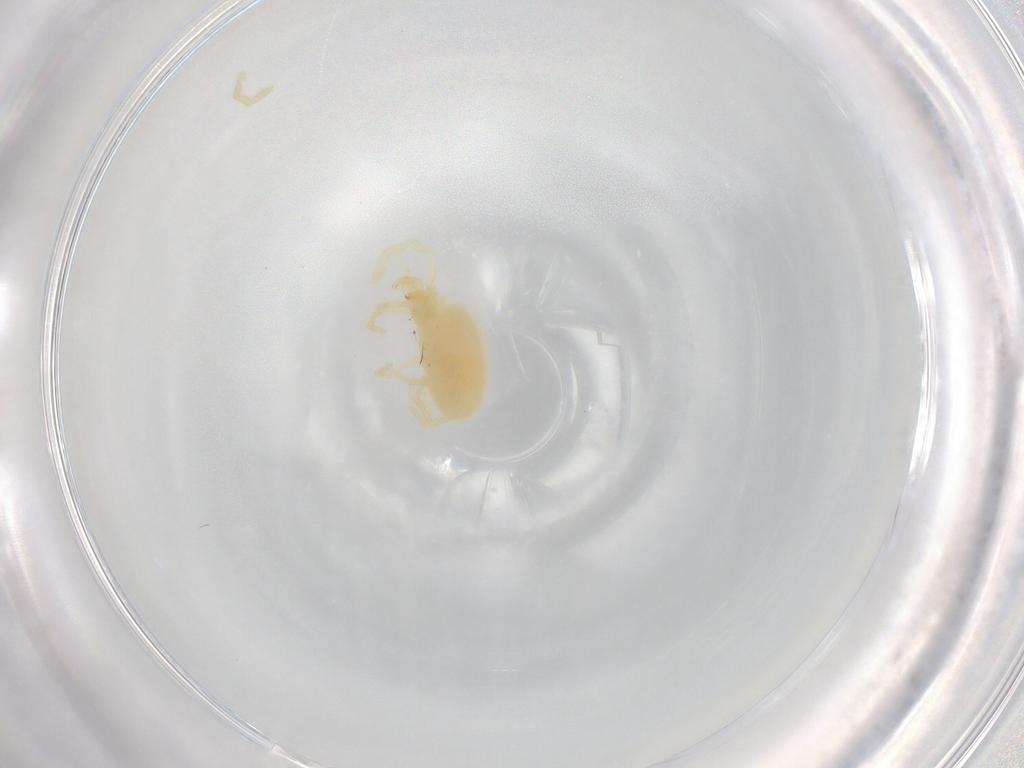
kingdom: Animalia
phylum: Arthropoda
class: Arachnida
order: Trombidiformes
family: Trombidiidae
